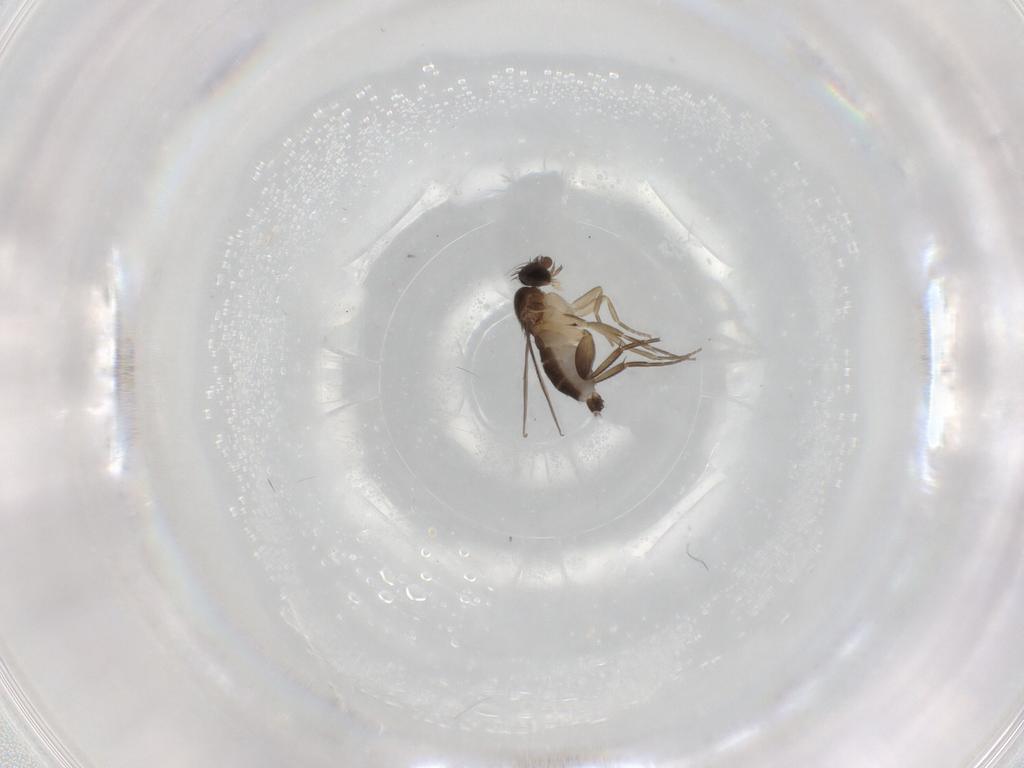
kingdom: Animalia
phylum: Arthropoda
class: Insecta
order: Diptera
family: Phoridae
